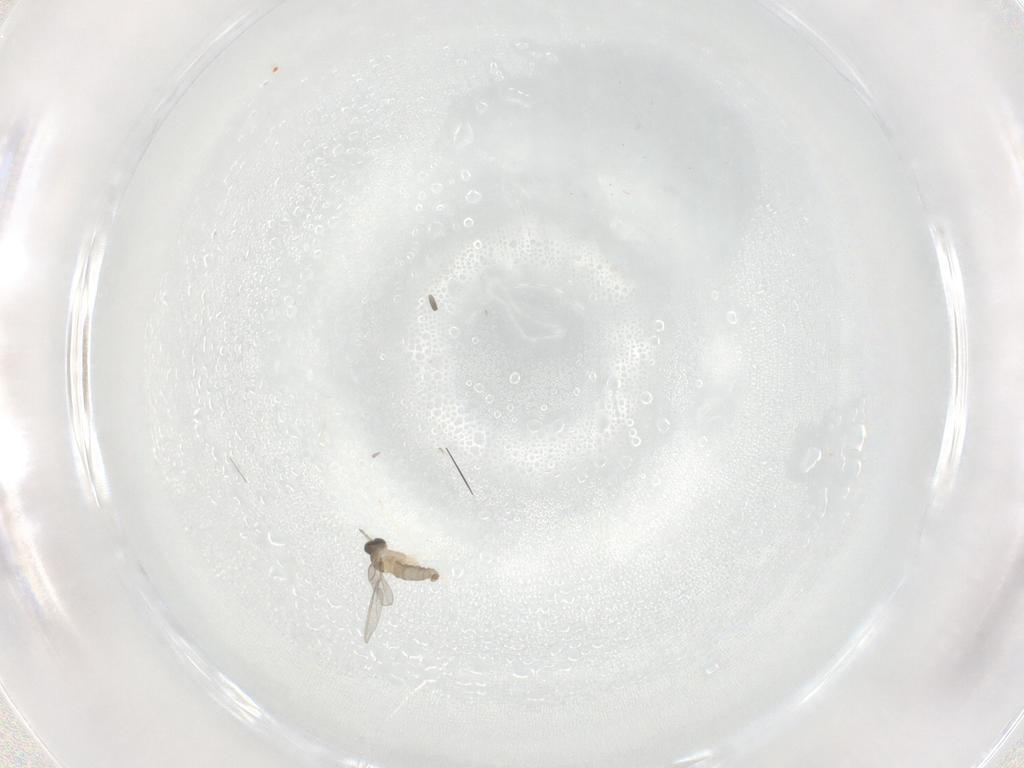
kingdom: Animalia
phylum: Arthropoda
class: Insecta
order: Diptera
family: Cecidomyiidae
